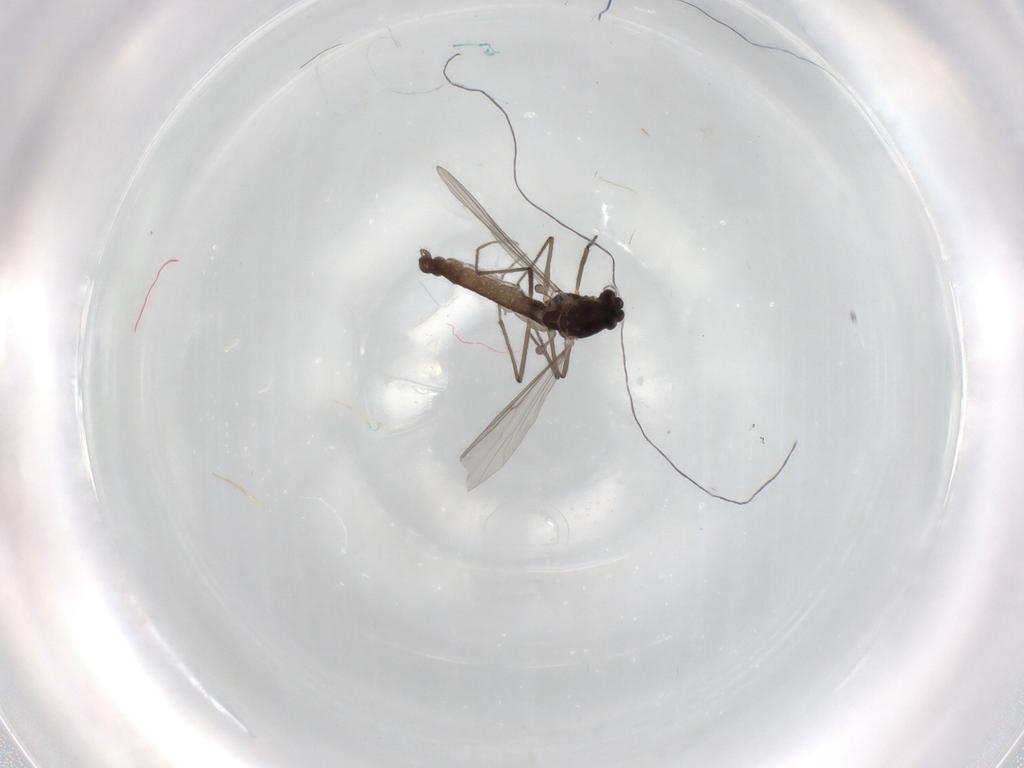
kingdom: Animalia
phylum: Arthropoda
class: Insecta
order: Diptera
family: Chironomidae
